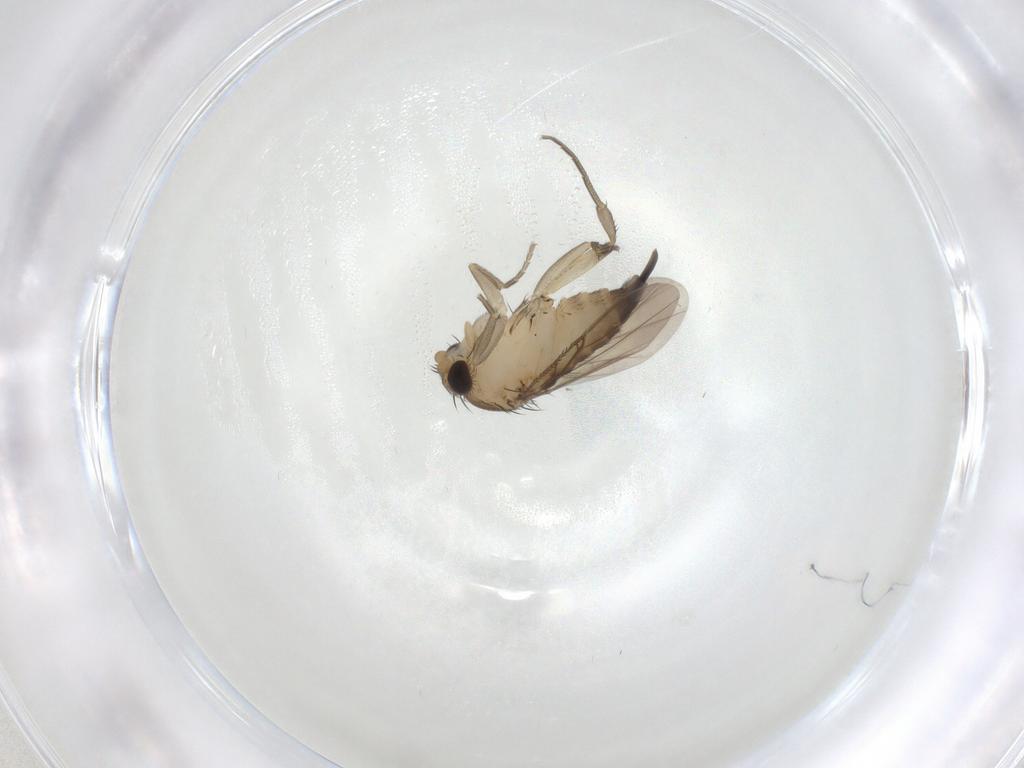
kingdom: Animalia
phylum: Arthropoda
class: Insecta
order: Diptera
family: Phoridae
